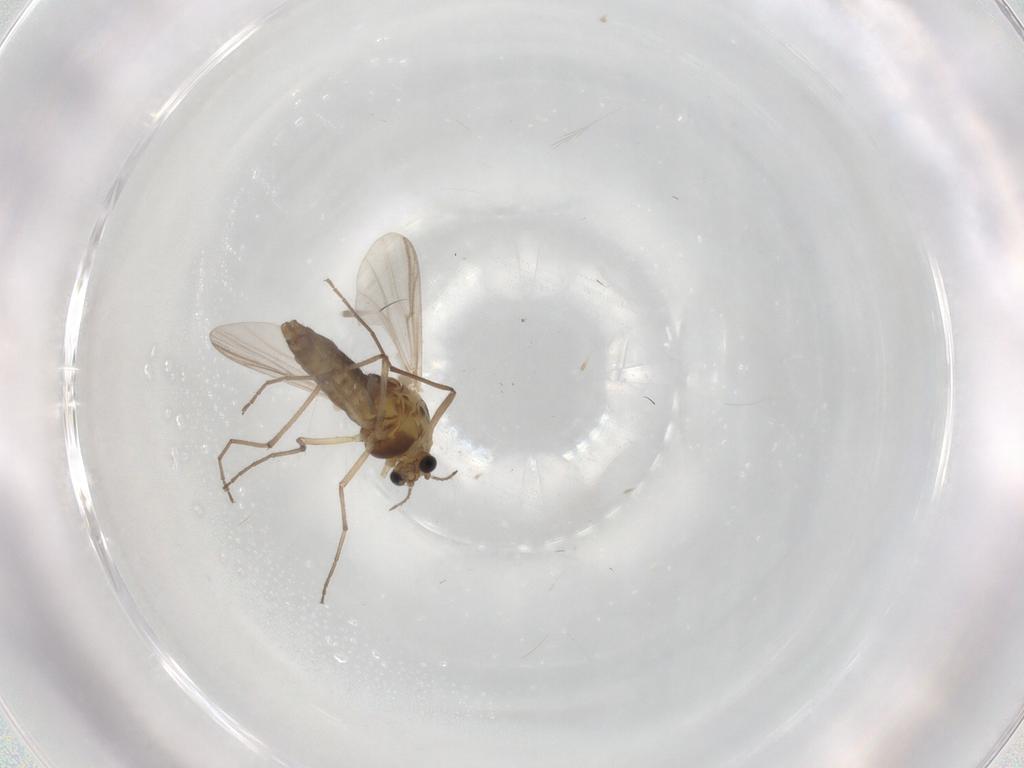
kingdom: Animalia
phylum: Arthropoda
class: Insecta
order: Diptera
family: Chironomidae
